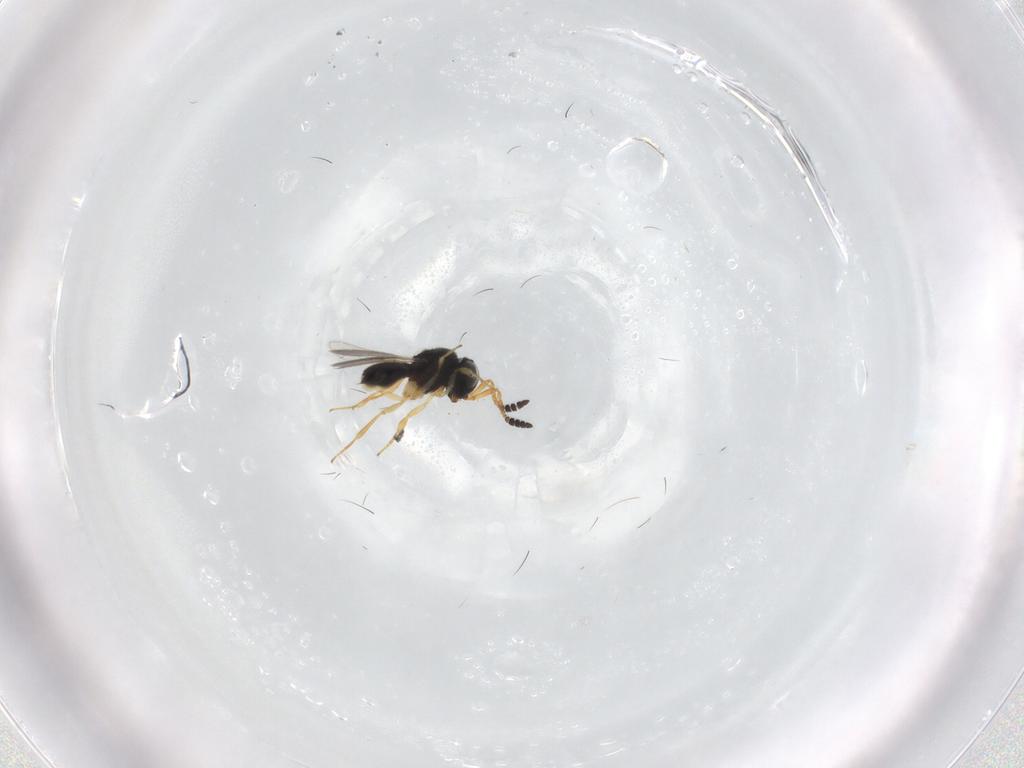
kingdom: Animalia
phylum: Arthropoda
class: Insecta
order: Hymenoptera
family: Scelionidae
